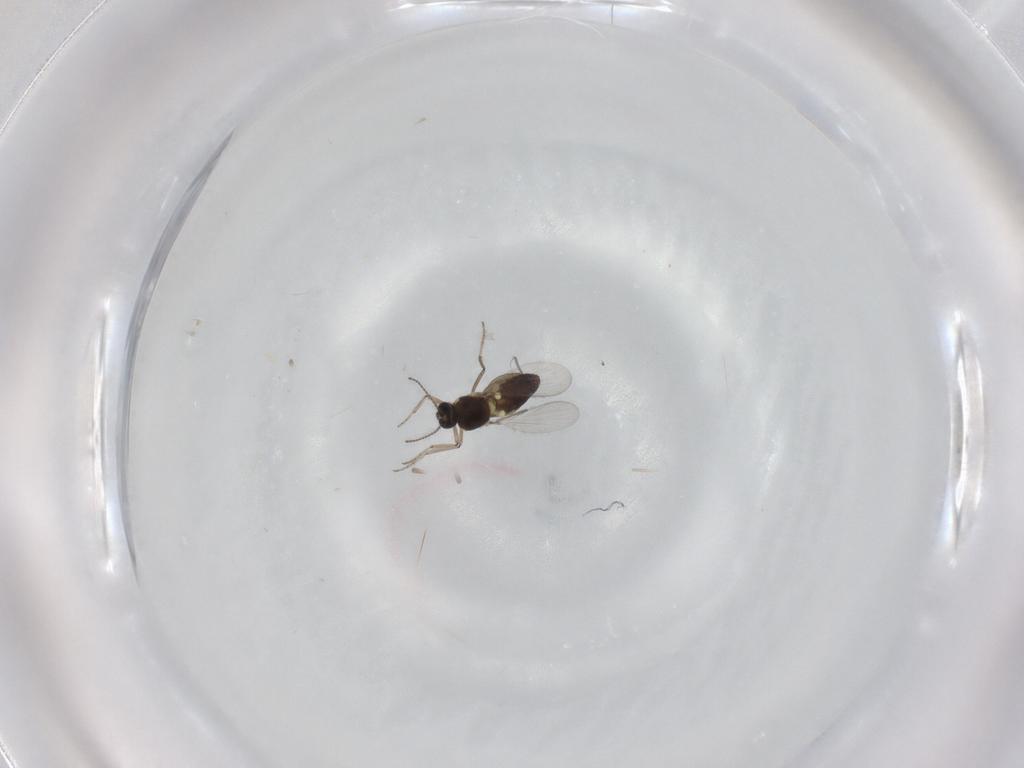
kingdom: Animalia
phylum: Arthropoda
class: Insecta
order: Diptera
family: Ceratopogonidae
